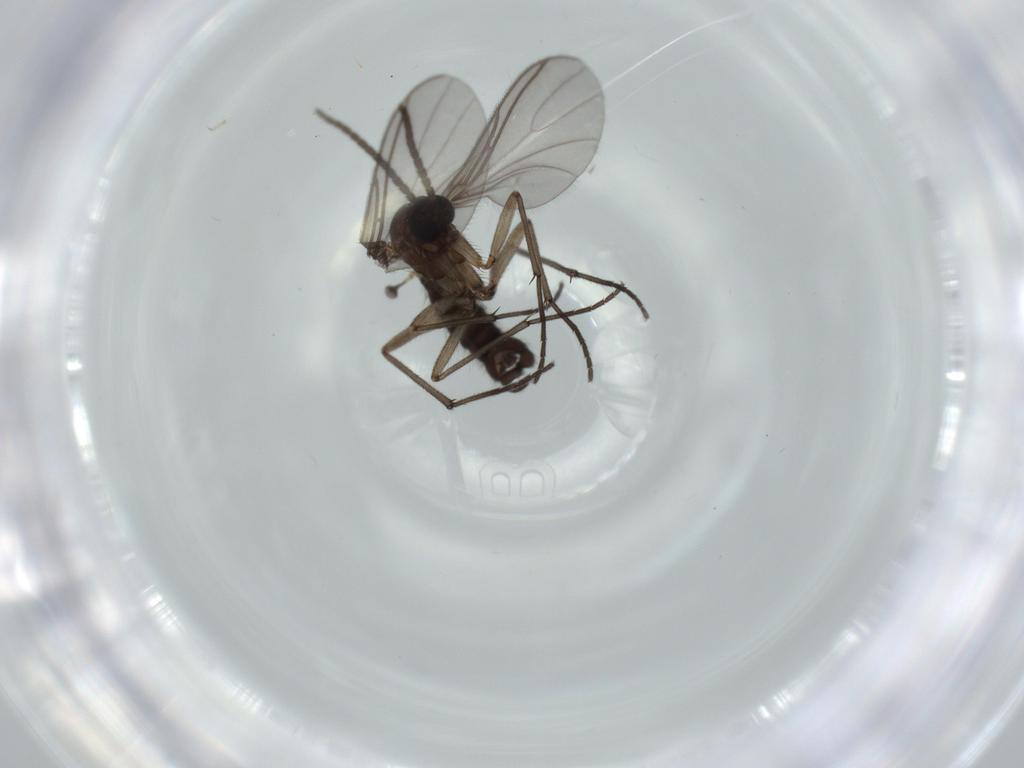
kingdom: Animalia
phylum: Arthropoda
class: Insecta
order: Diptera
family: Sciaridae
